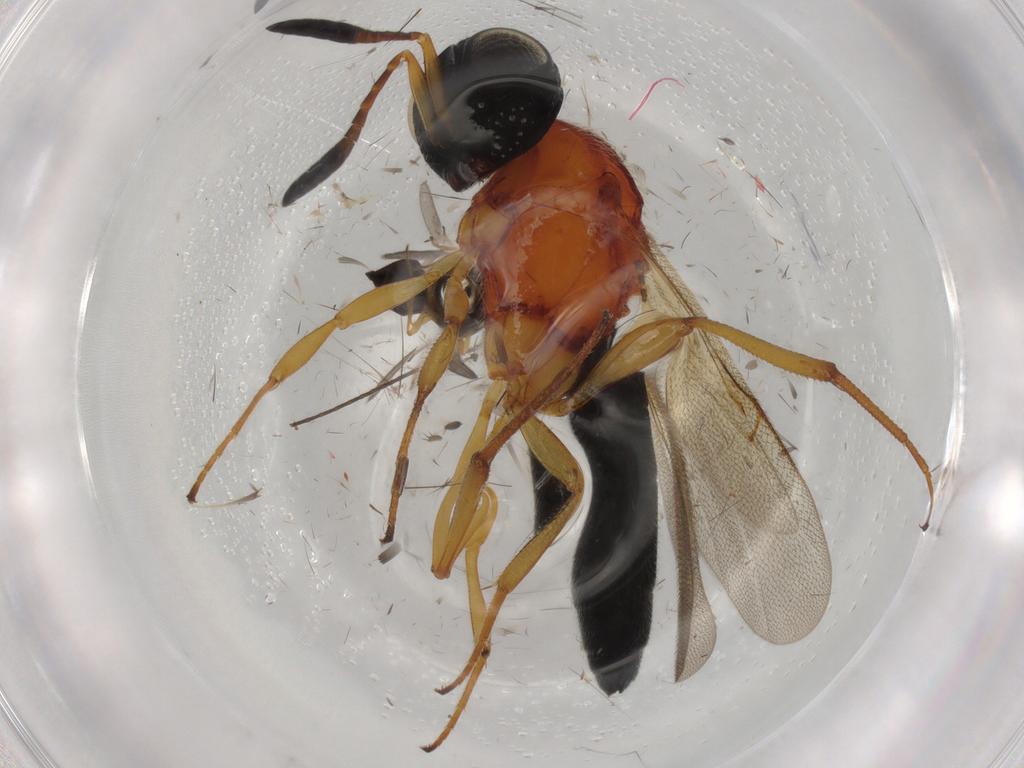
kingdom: Animalia
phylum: Arthropoda
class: Insecta
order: Hymenoptera
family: Scelionidae
